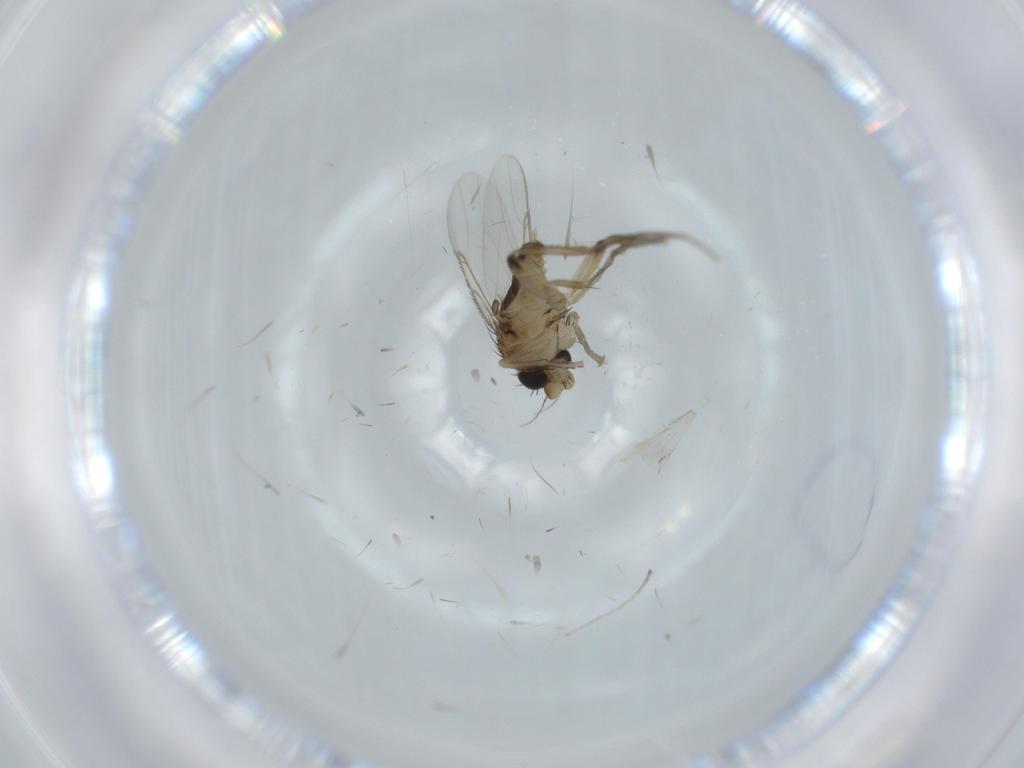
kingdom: Animalia
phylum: Arthropoda
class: Insecta
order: Diptera
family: Phoridae
